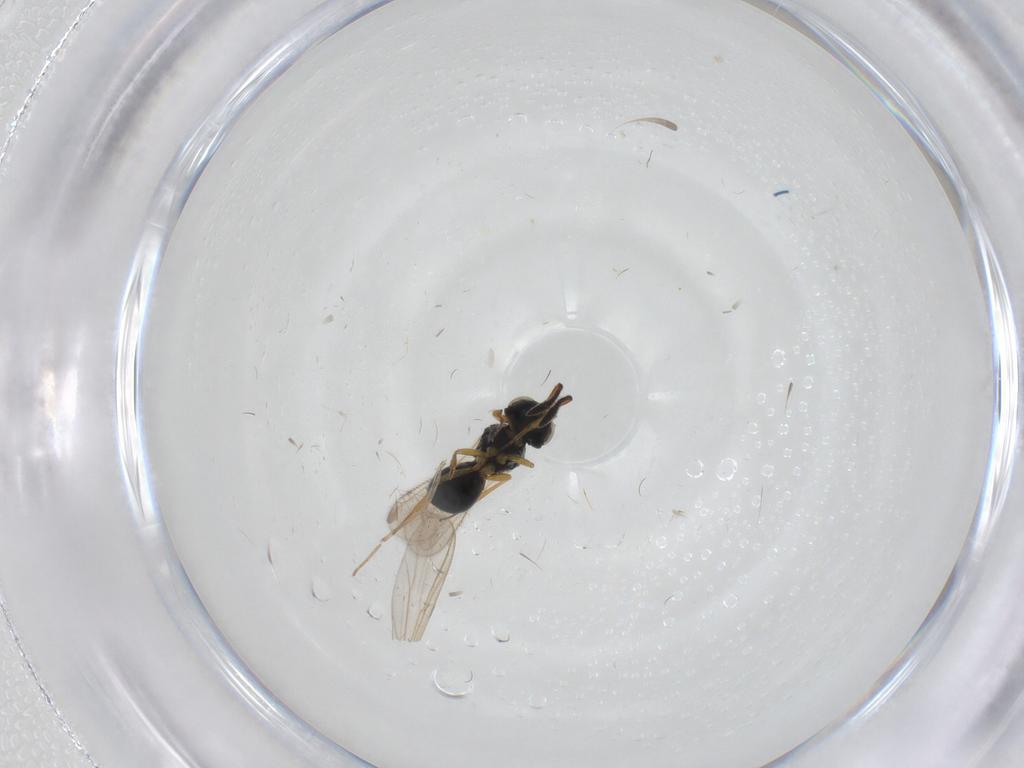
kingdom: Animalia
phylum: Arthropoda
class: Insecta
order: Hymenoptera
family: Scelionidae
